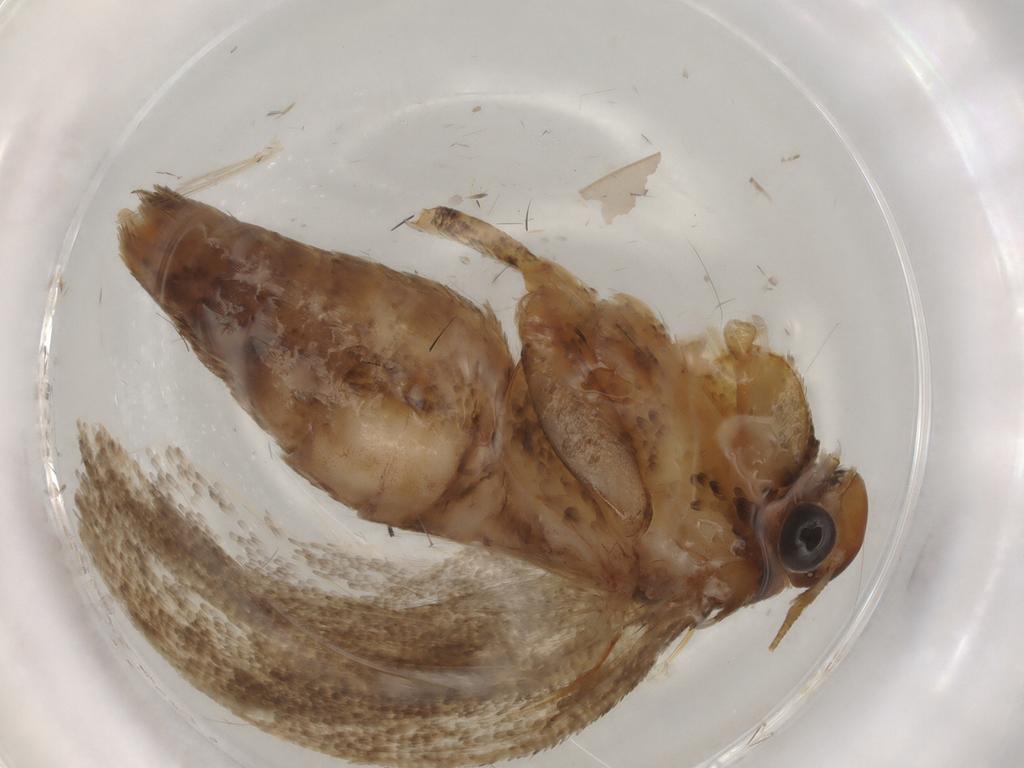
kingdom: Animalia
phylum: Arthropoda
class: Insecta
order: Lepidoptera
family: Gelechiidae
